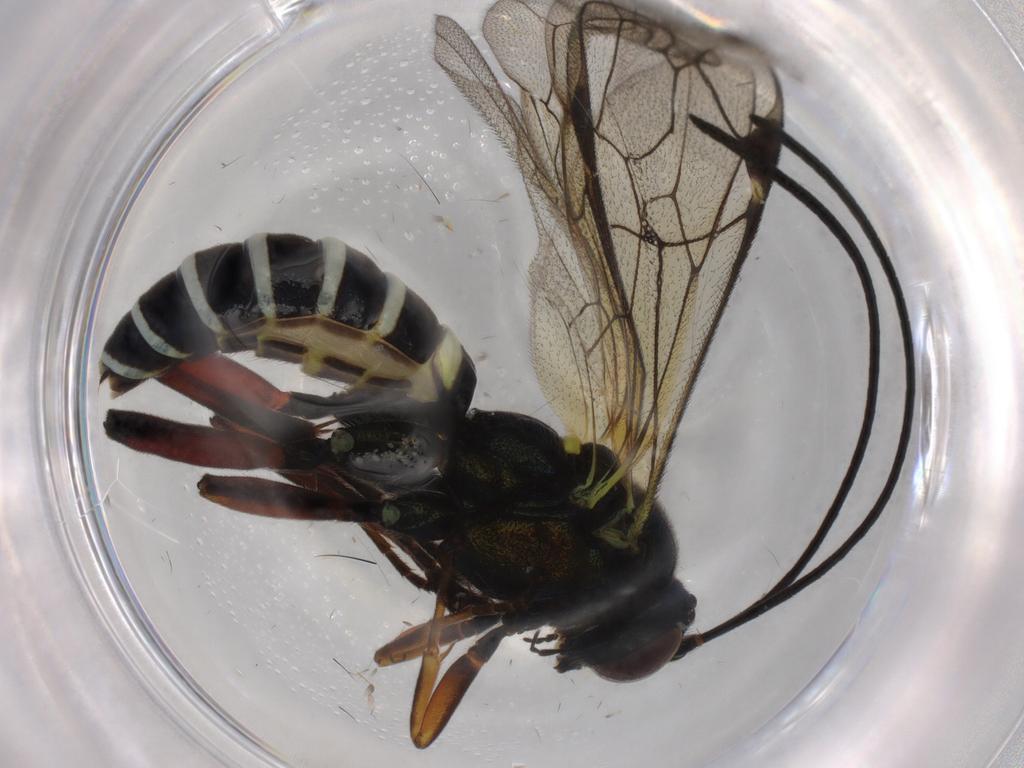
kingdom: Animalia
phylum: Arthropoda
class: Insecta
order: Hymenoptera
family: Ichneumonidae
